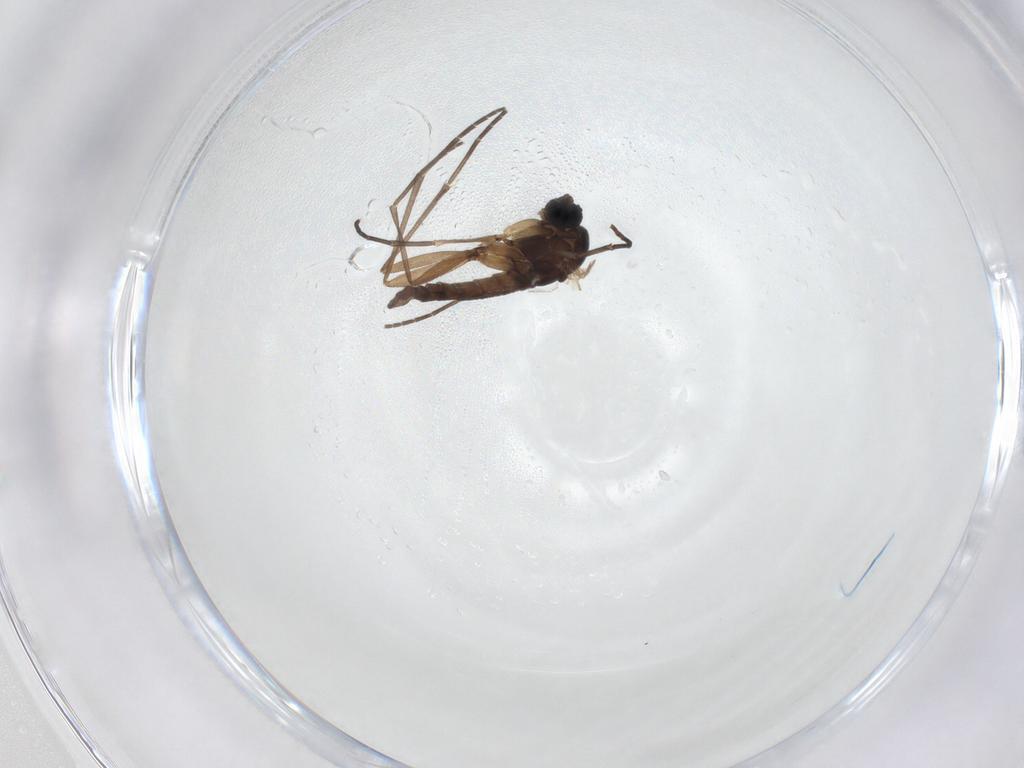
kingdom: Animalia
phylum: Arthropoda
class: Insecta
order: Diptera
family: Sciaridae
